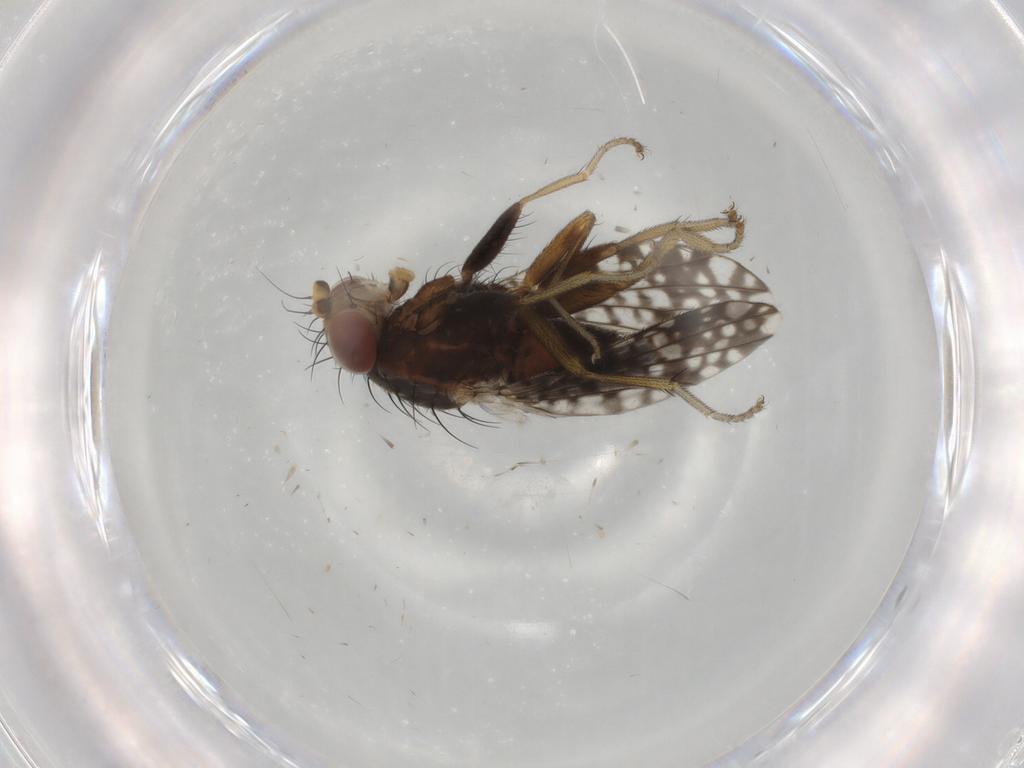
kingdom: Animalia
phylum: Arthropoda
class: Insecta
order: Diptera
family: Tephritidae
